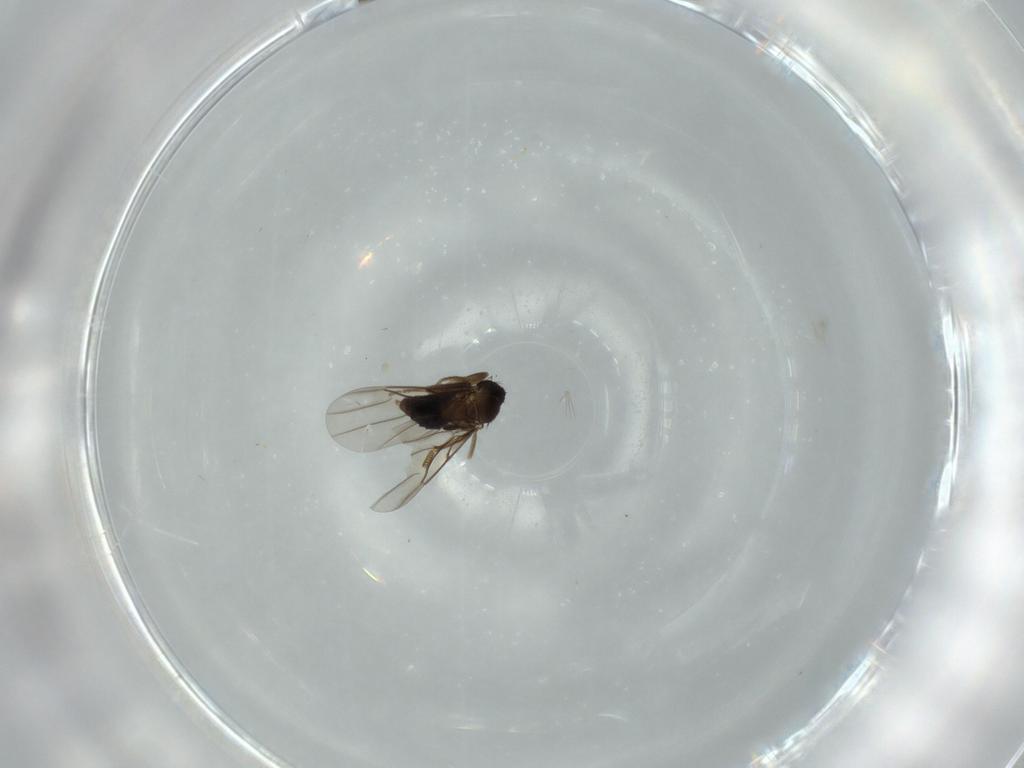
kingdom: Animalia
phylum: Arthropoda
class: Insecta
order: Diptera
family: Phoridae
